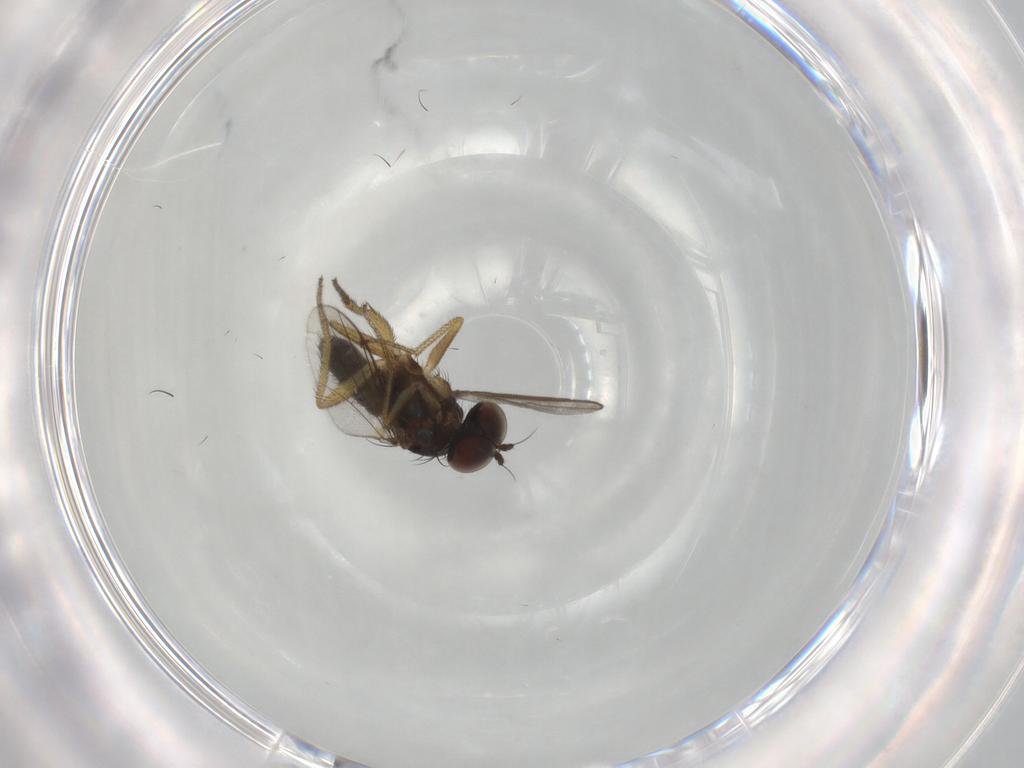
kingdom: Animalia
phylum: Arthropoda
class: Insecta
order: Diptera
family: Dolichopodidae
